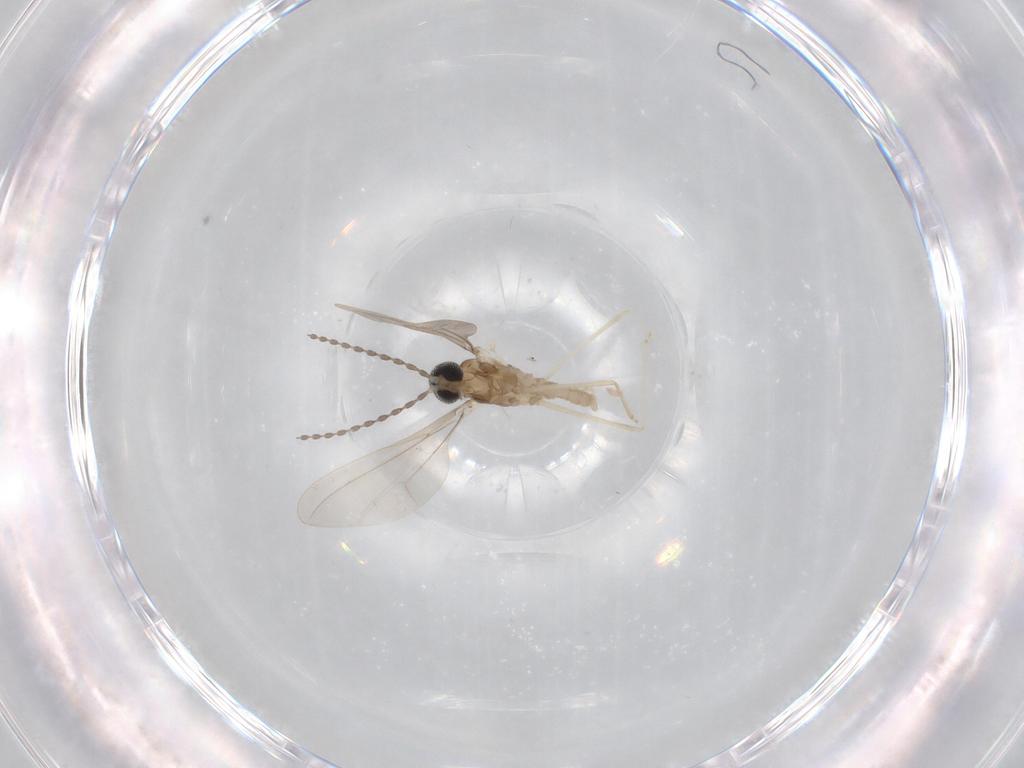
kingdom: Animalia
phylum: Arthropoda
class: Insecta
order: Diptera
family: Cecidomyiidae
